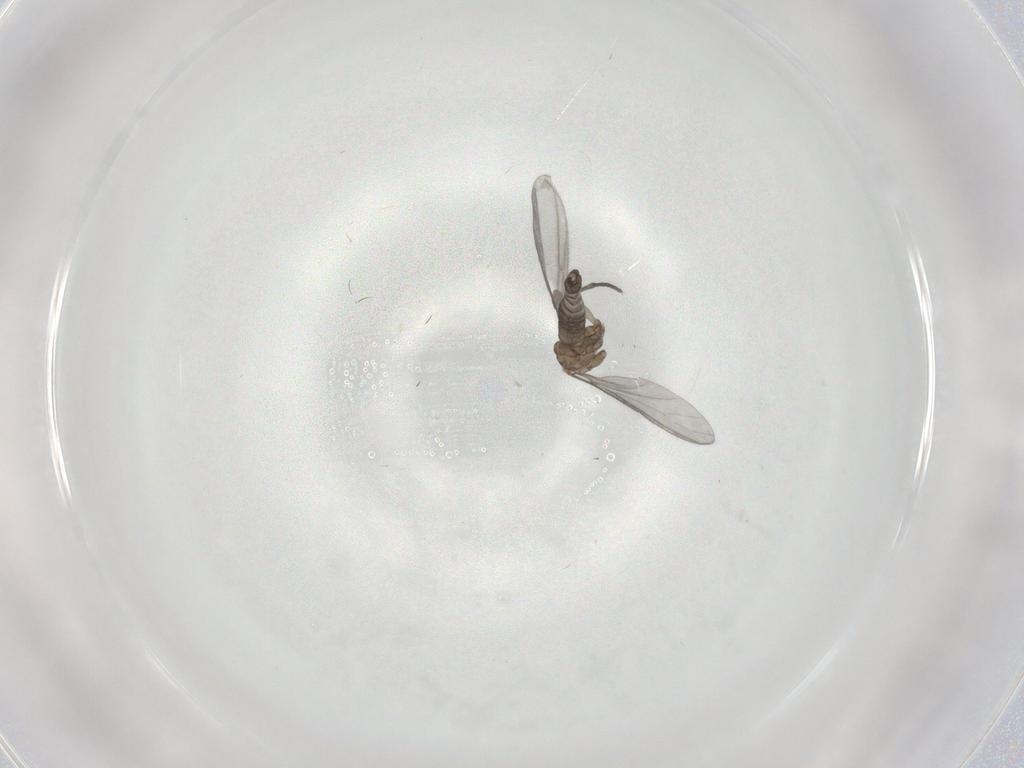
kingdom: Animalia
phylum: Arthropoda
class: Insecta
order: Diptera
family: Sciaridae
